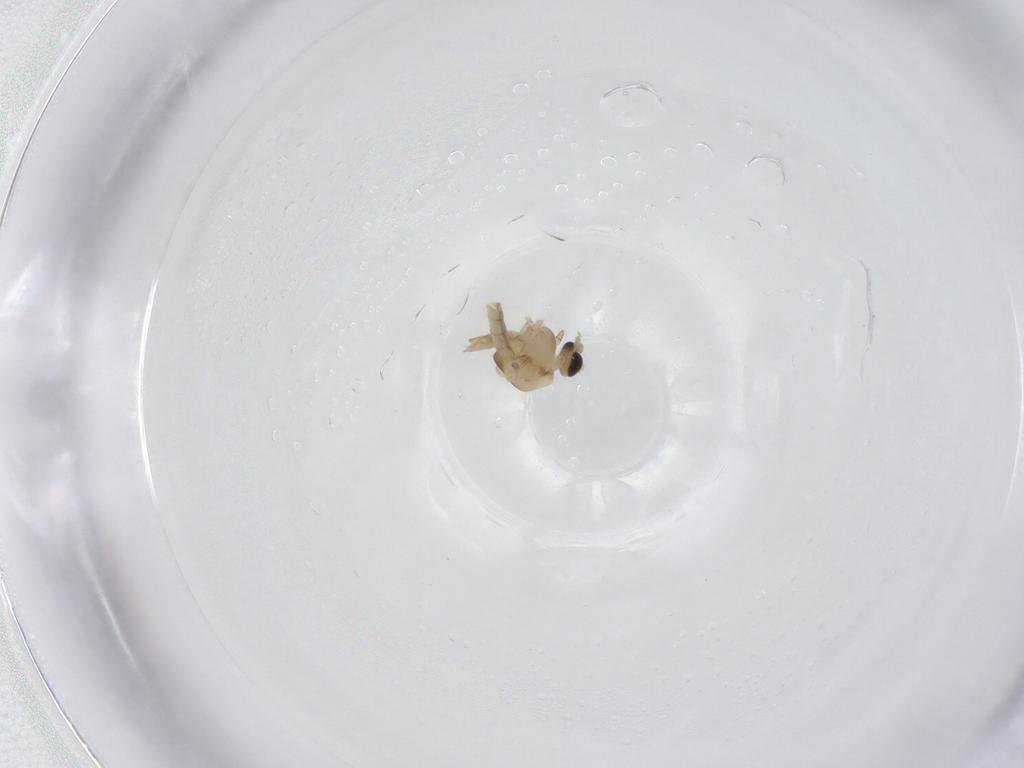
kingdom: Animalia
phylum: Arthropoda
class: Insecta
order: Diptera
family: Chironomidae
